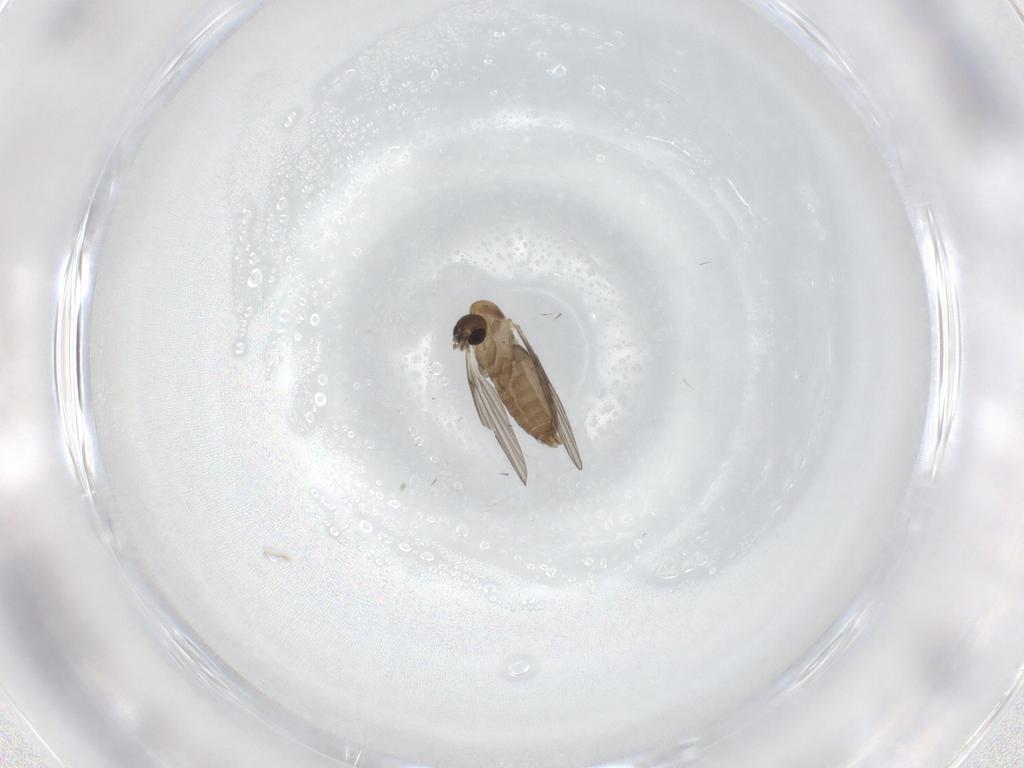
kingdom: Animalia
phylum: Arthropoda
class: Insecta
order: Diptera
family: Psychodidae
